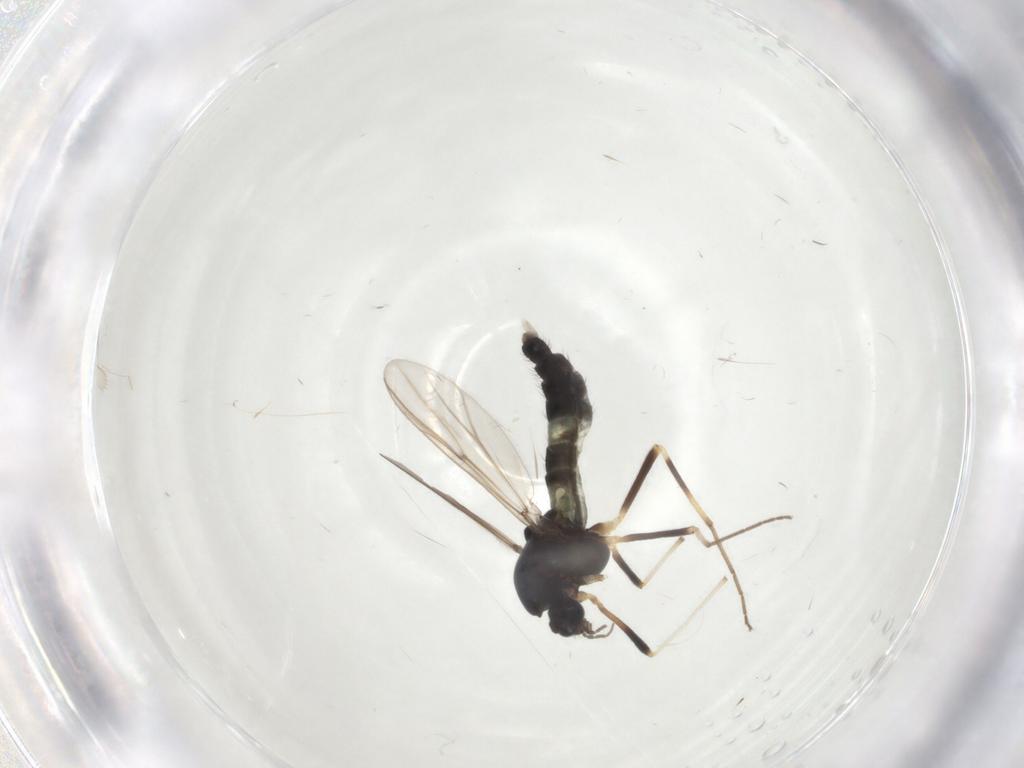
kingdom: Animalia
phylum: Arthropoda
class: Insecta
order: Diptera
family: Chironomidae
